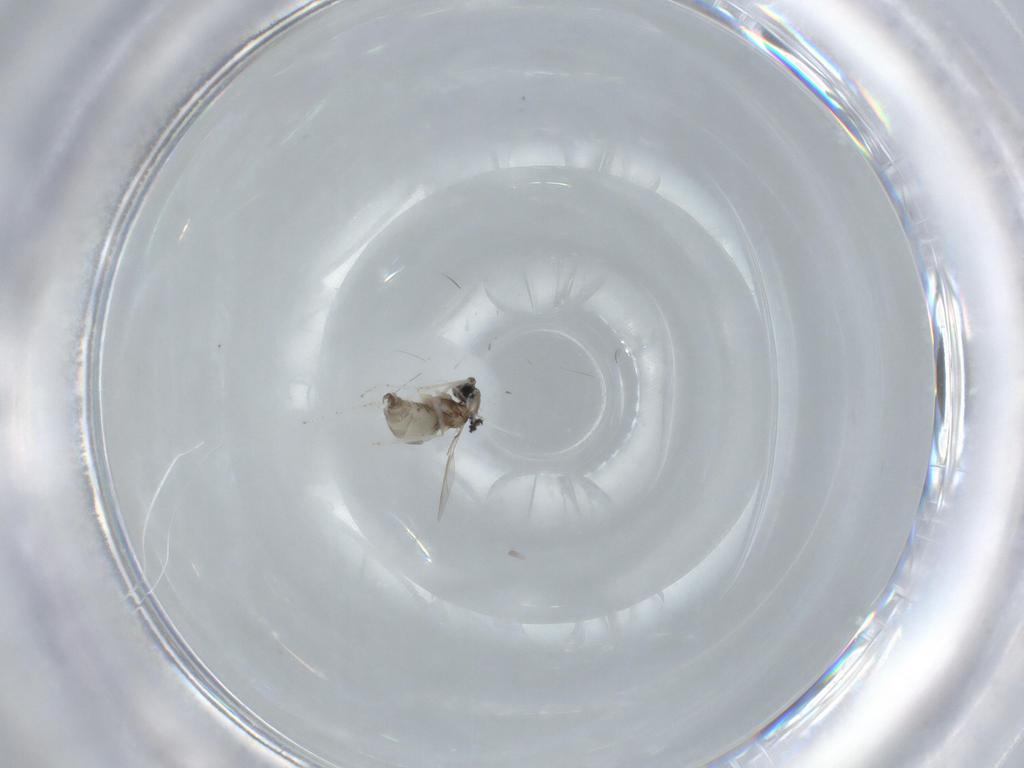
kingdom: Animalia
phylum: Arthropoda
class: Insecta
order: Diptera
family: Cecidomyiidae
